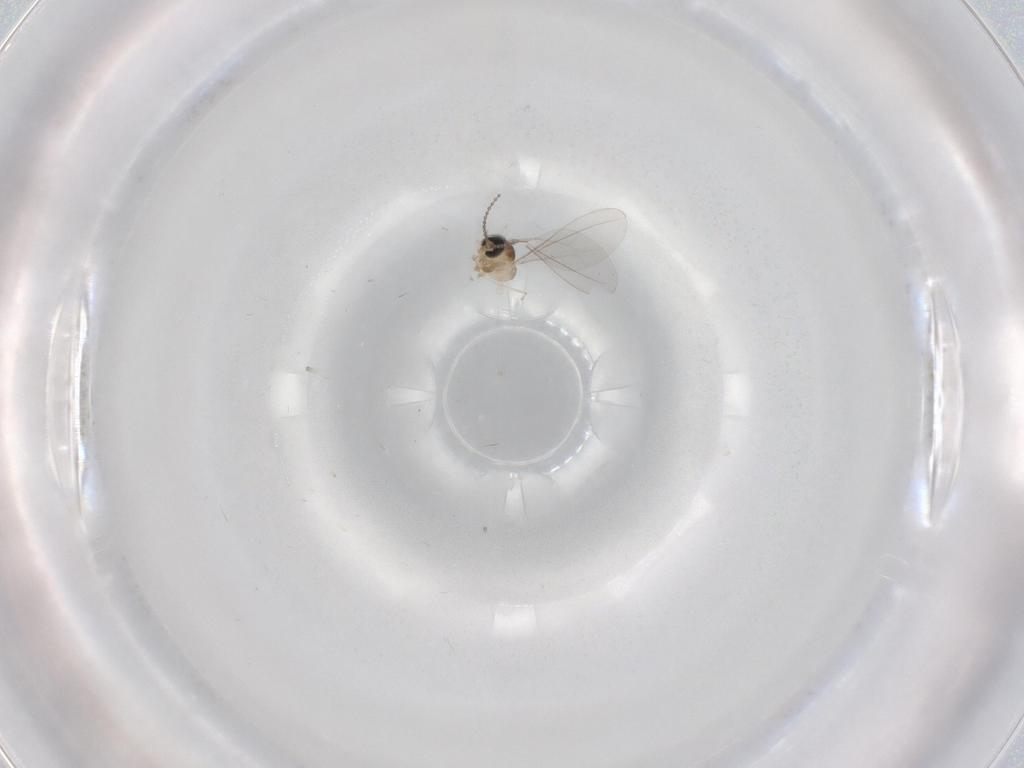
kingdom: Animalia
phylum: Arthropoda
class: Insecta
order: Diptera
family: Cecidomyiidae
